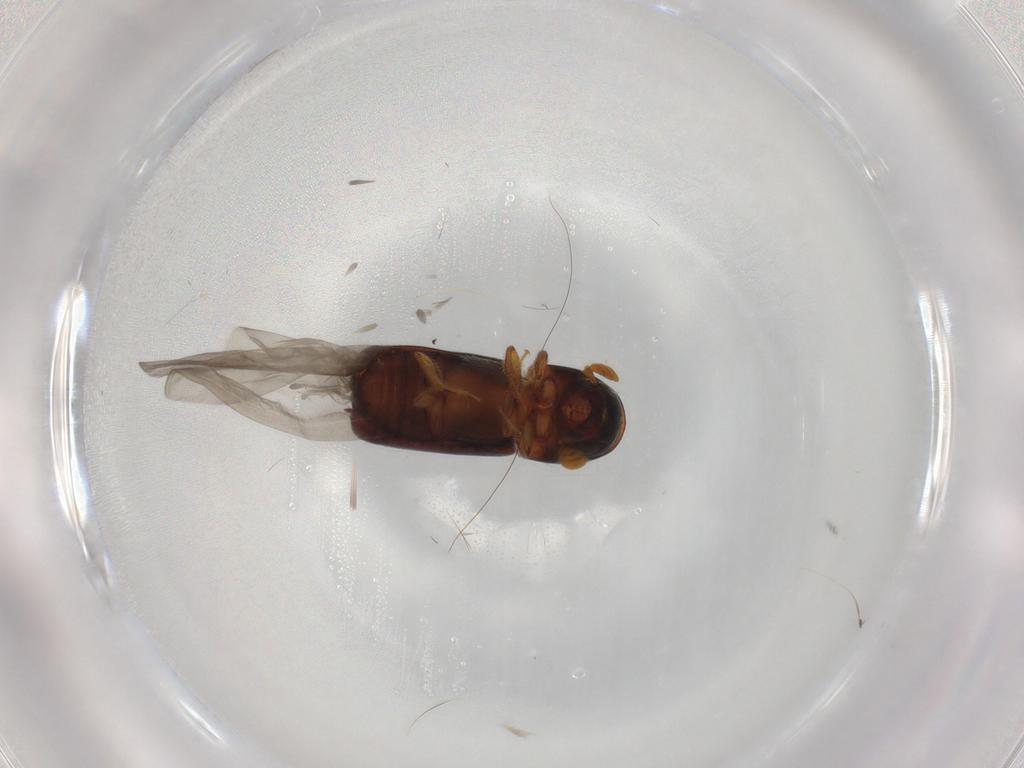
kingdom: Animalia
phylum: Arthropoda
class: Insecta
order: Coleoptera
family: Curculionidae
